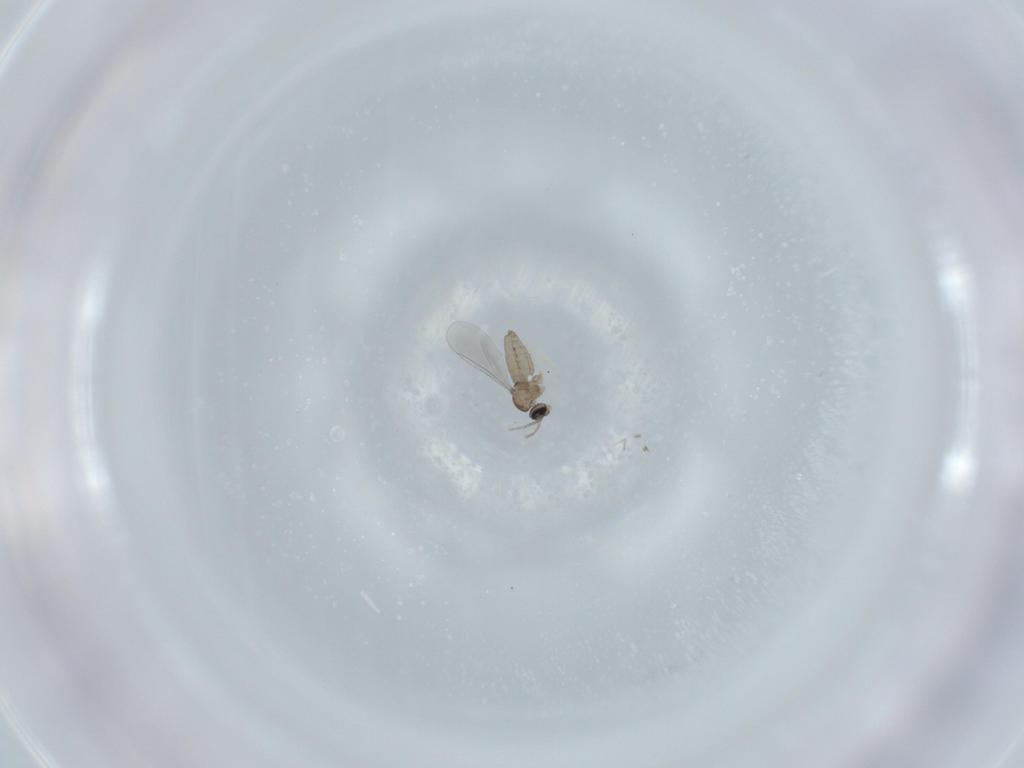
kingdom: Animalia
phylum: Arthropoda
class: Insecta
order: Diptera
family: Cecidomyiidae
